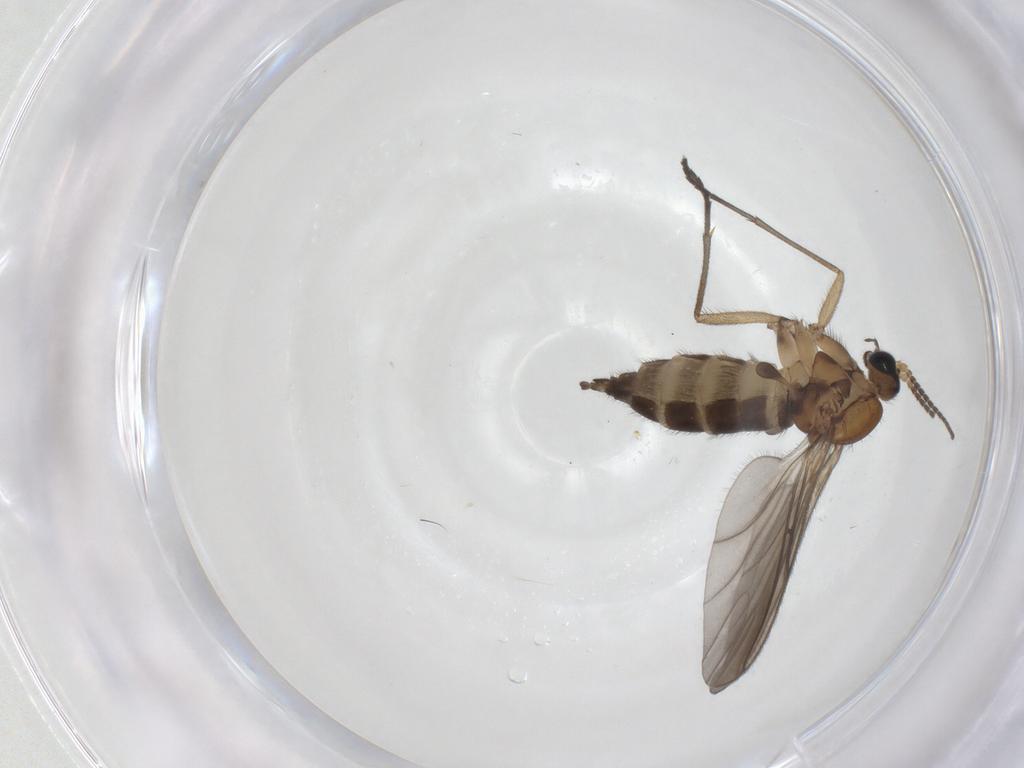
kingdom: Animalia
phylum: Arthropoda
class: Insecta
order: Diptera
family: Sciaridae
